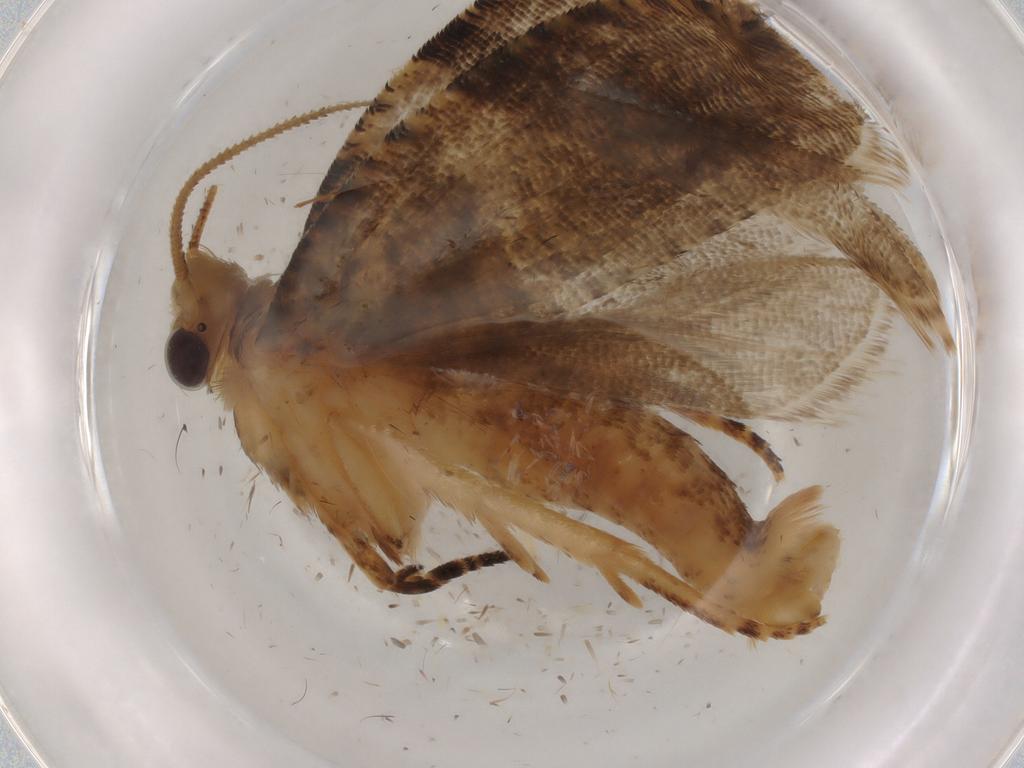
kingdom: Animalia
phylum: Arthropoda
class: Insecta
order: Lepidoptera
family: Tortricidae
